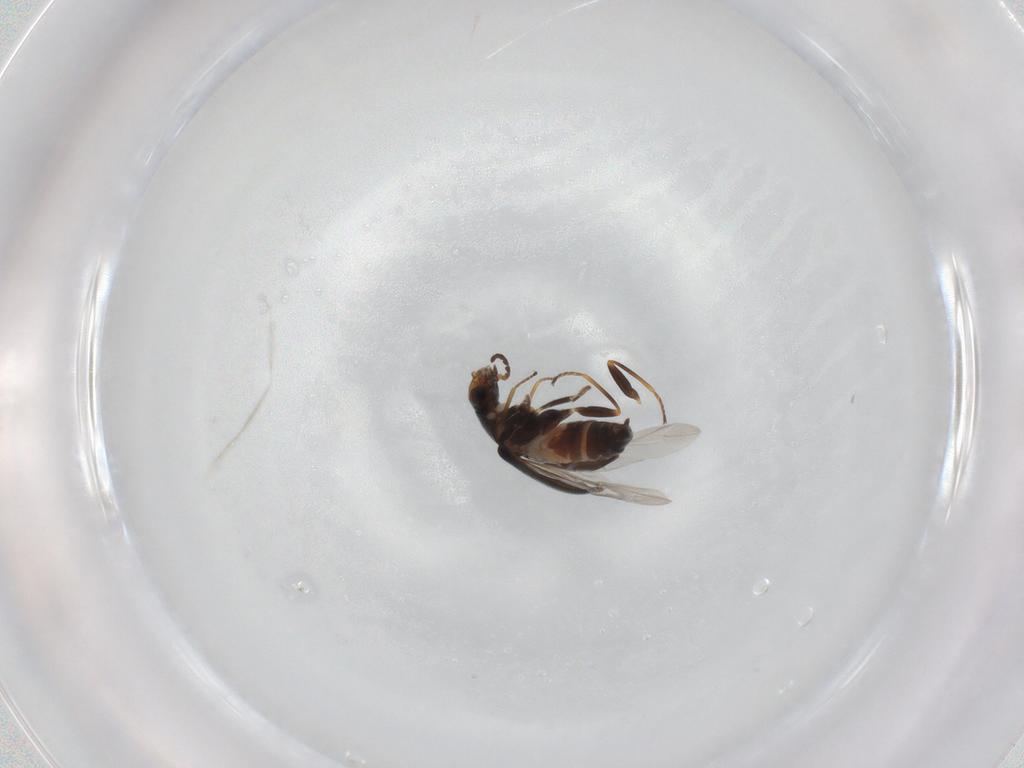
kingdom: Animalia
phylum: Arthropoda
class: Insecta
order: Coleoptera
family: Melyridae
